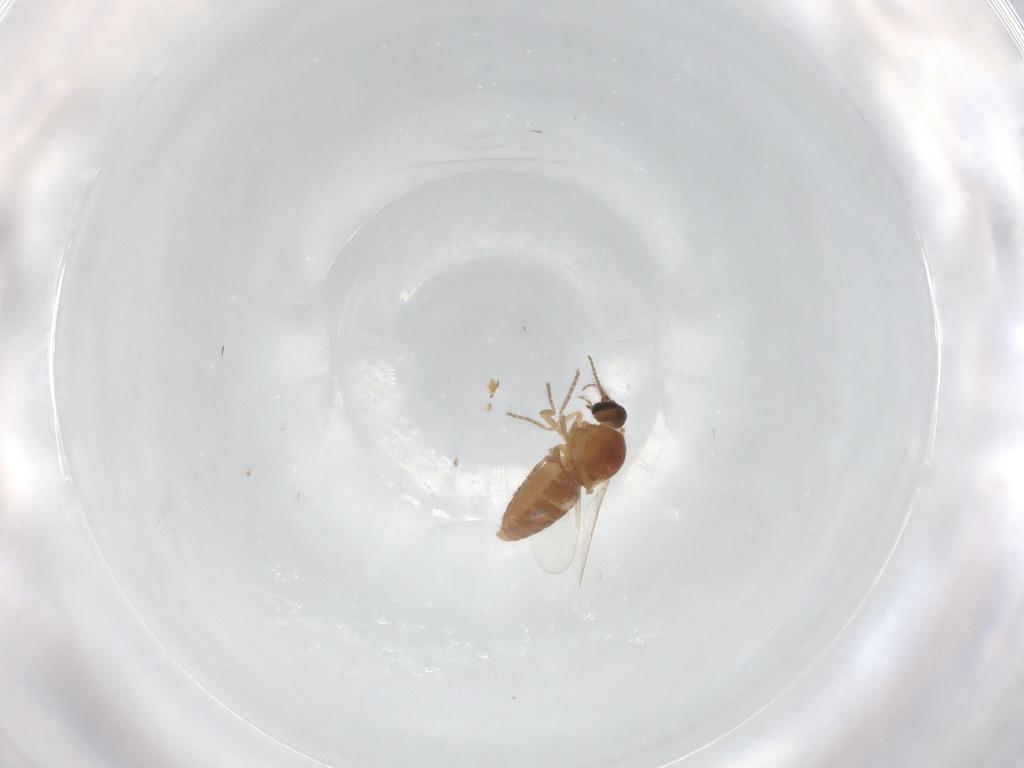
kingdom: Animalia
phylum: Arthropoda
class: Insecta
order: Diptera
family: Ceratopogonidae
